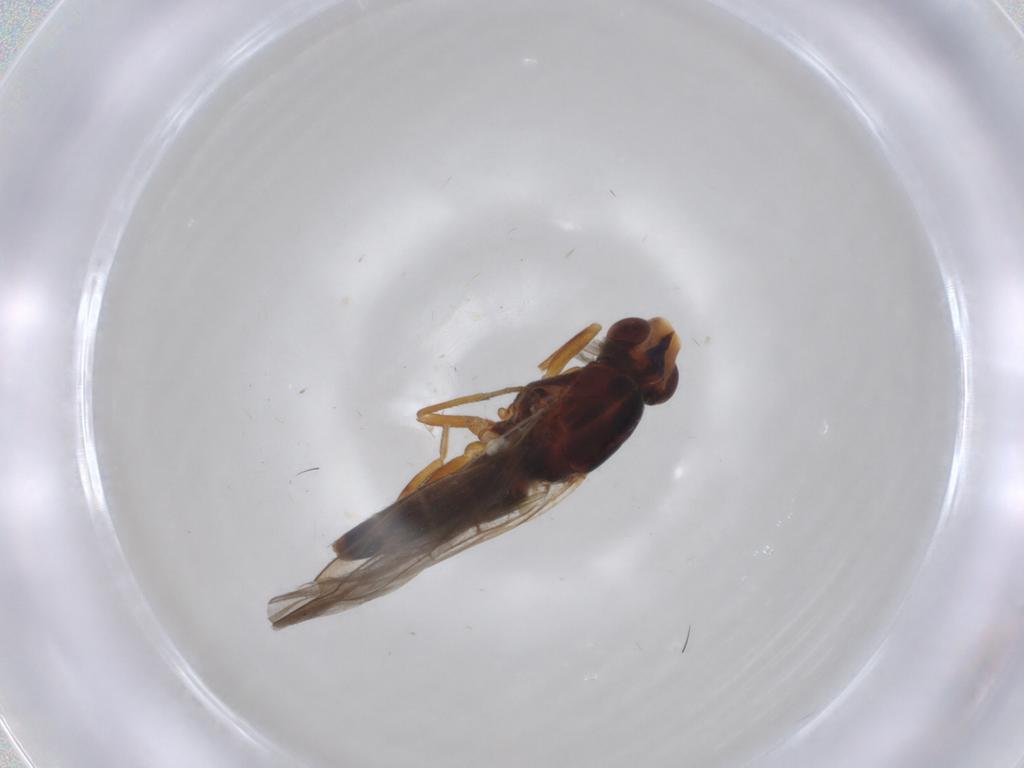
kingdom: Animalia
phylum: Arthropoda
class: Insecta
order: Diptera
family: Chloropidae
